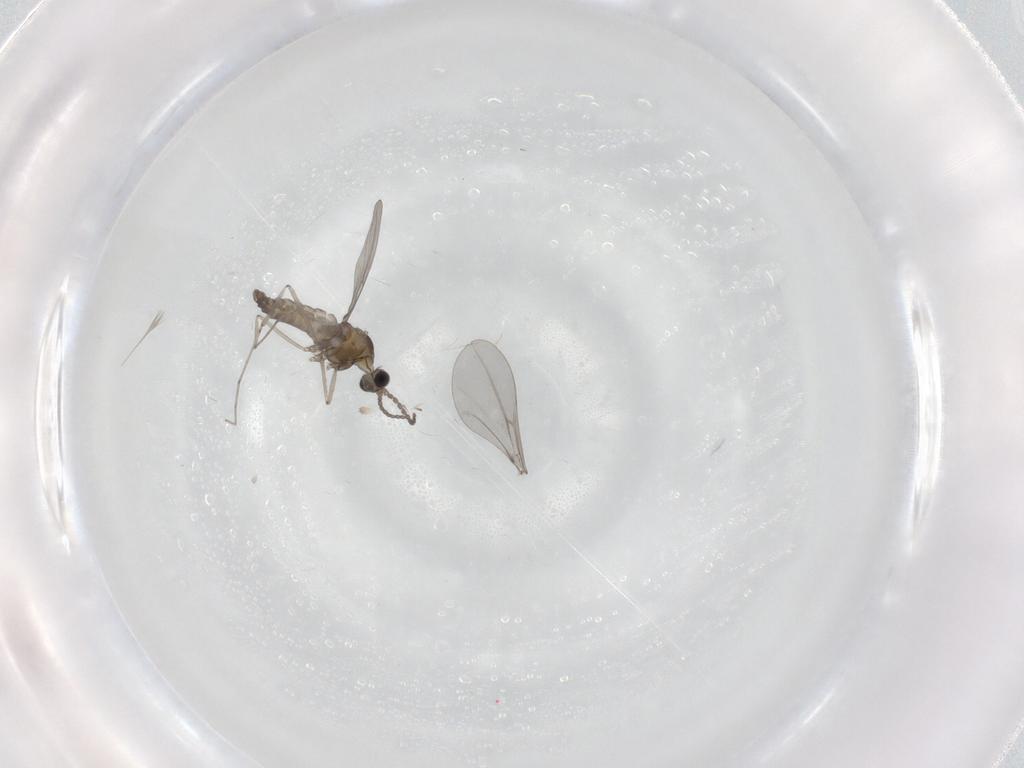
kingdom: Animalia
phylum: Arthropoda
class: Insecta
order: Diptera
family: Cecidomyiidae
